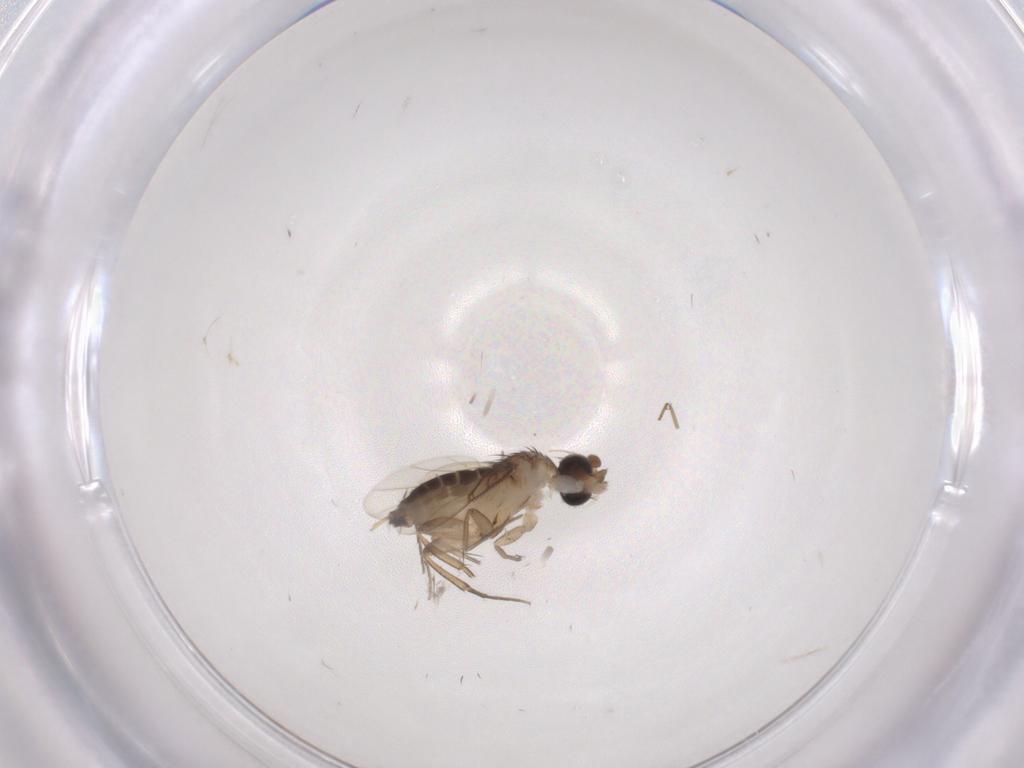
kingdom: Animalia
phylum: Arthropoda
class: Insecta
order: Diptera
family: Phoridae
